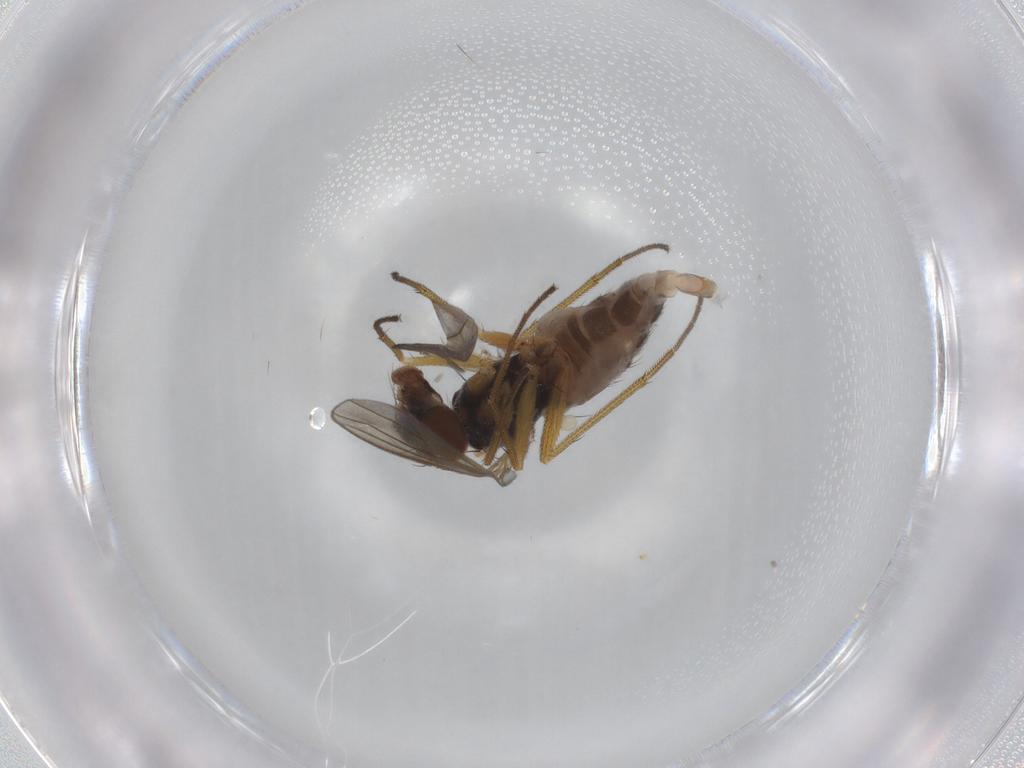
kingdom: Animalia
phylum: Arthropoda
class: Insecta
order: Diptera
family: Dolichopodidae
